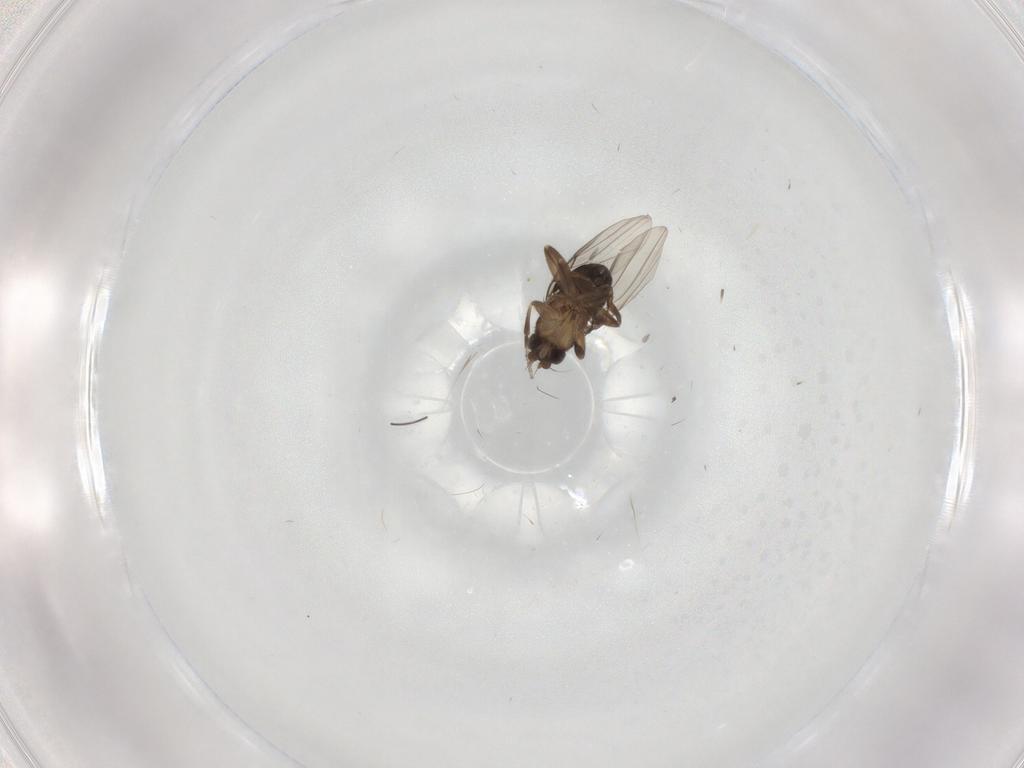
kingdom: Animalia
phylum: Arthropoda
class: Insecta
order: Diptera
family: Phoridae
